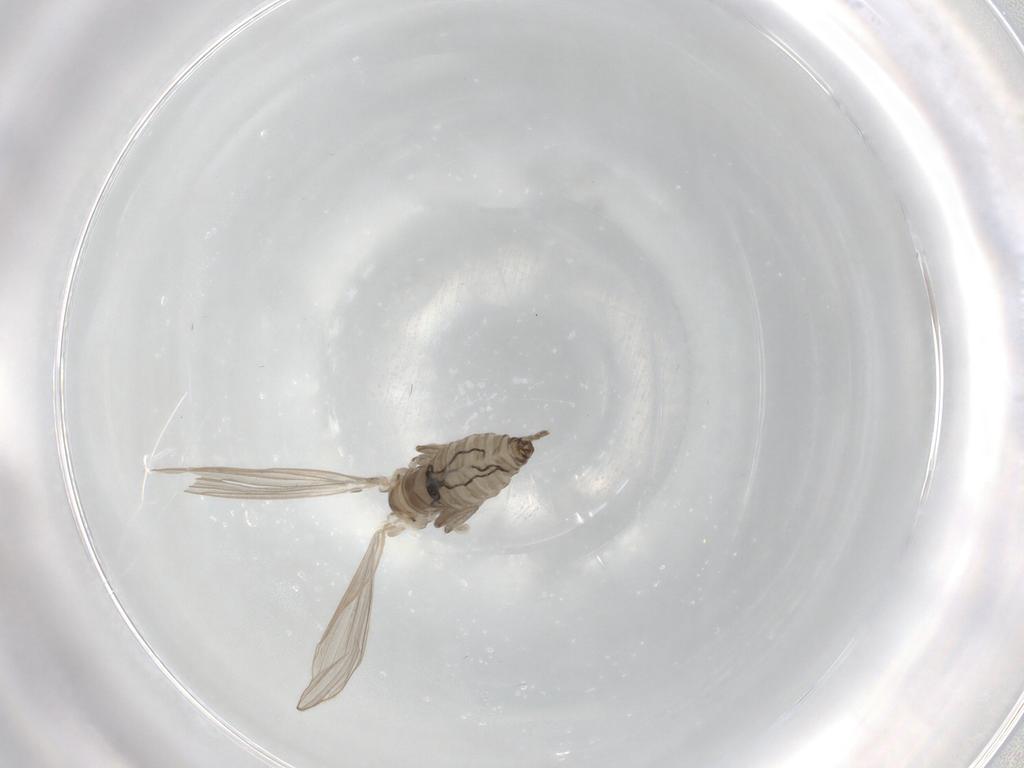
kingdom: Animalia
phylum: Arthropoda
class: Insecta
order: Diptera
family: Psychodidae
